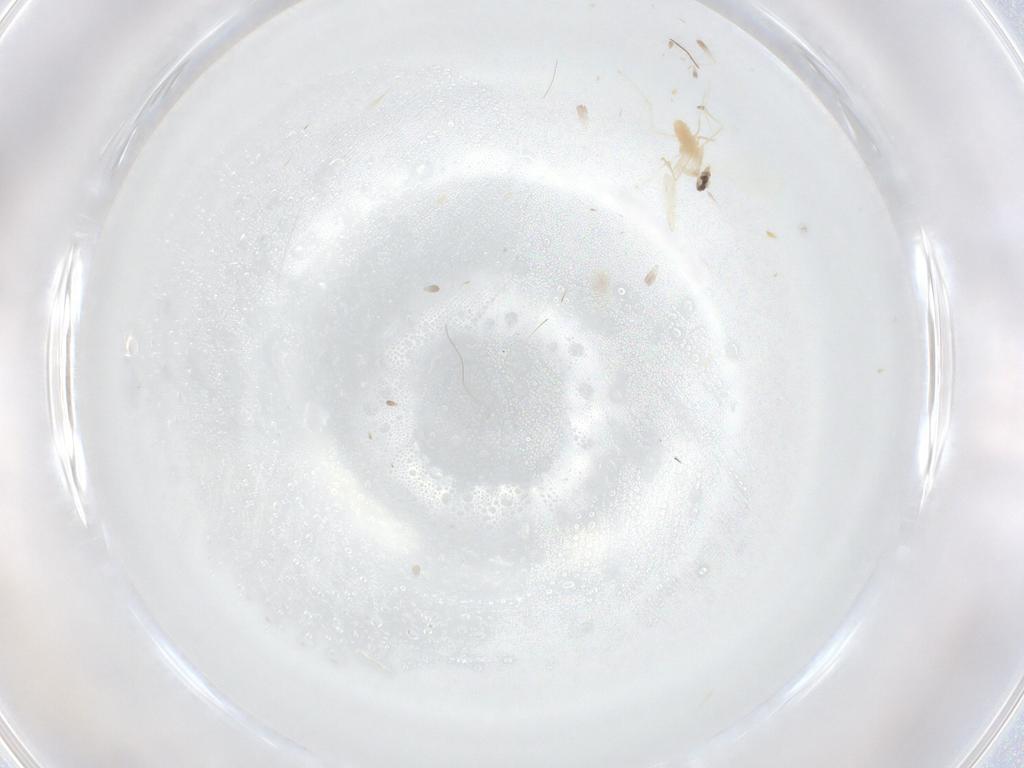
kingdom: Animalia
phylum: Arthropoda
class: Insecta
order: Diptera
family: Cecidomyiidae
